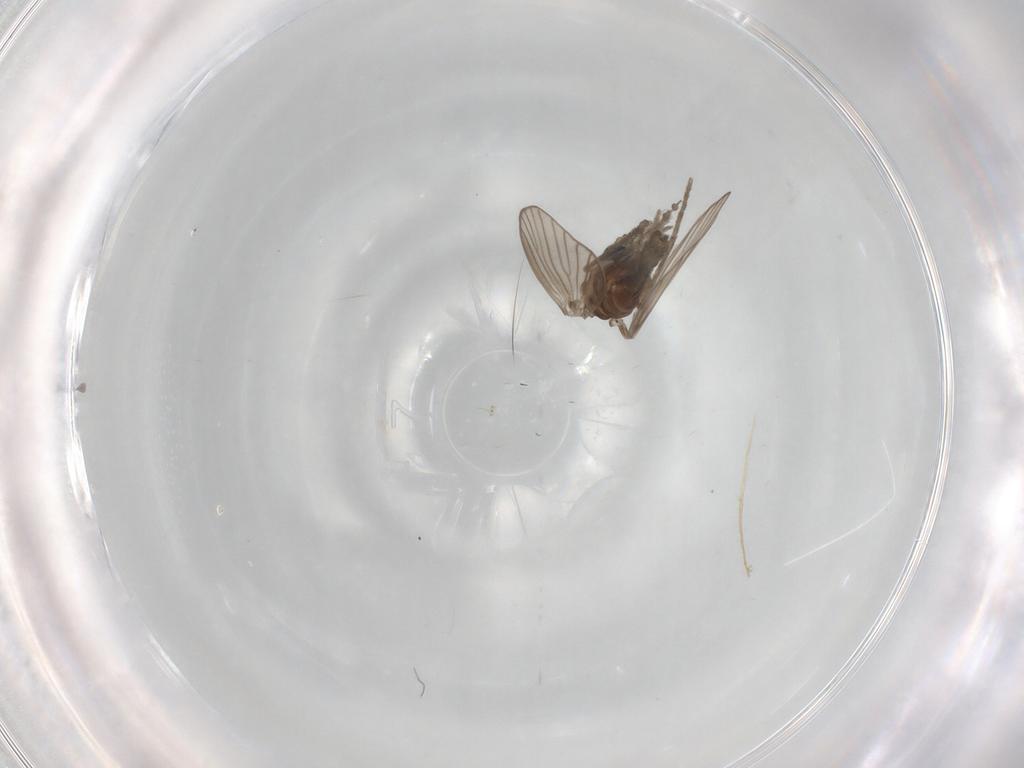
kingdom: Animalia
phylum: Arthropoda
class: Insecta
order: Diptera
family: Psychodidae
